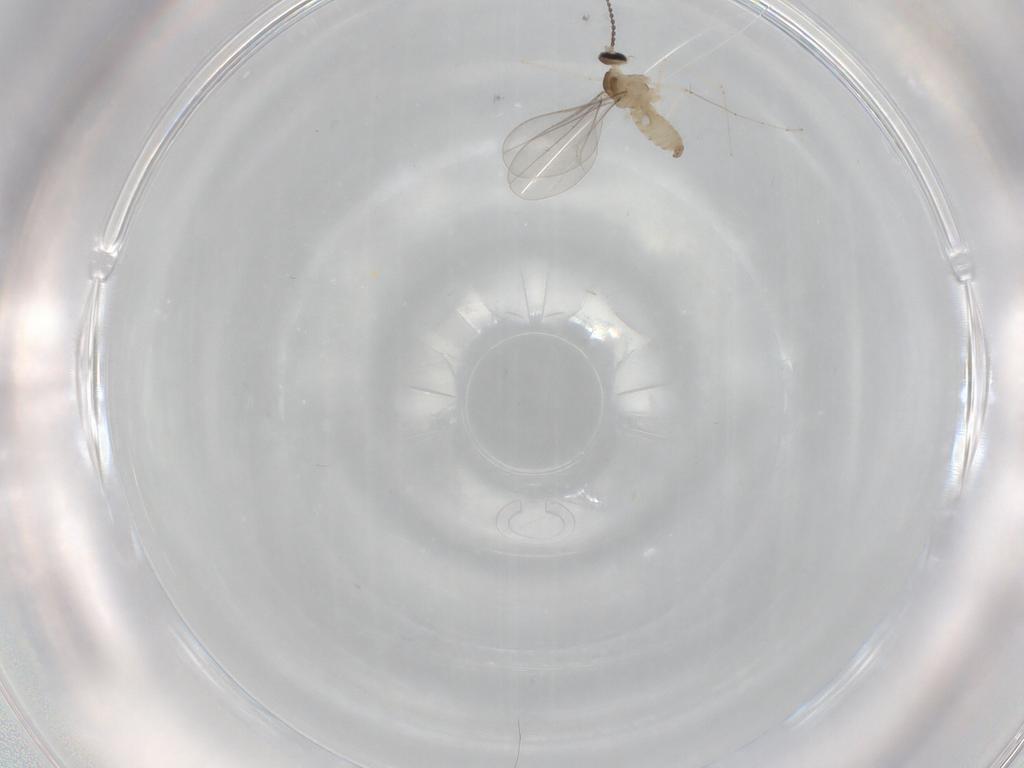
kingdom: Animalia
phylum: Arthropoda
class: Insecta
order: Diptera
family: Cecidomyiidae
